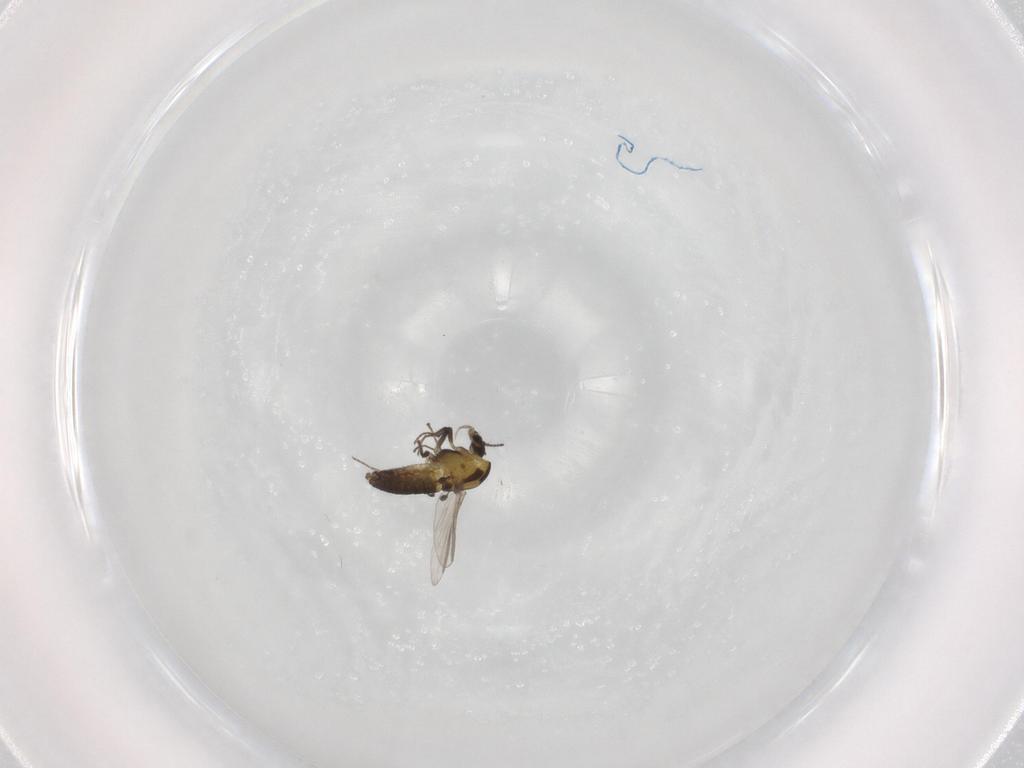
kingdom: Animalia
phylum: Arthropoda
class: Insecta
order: Diptera
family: Chironomidae
